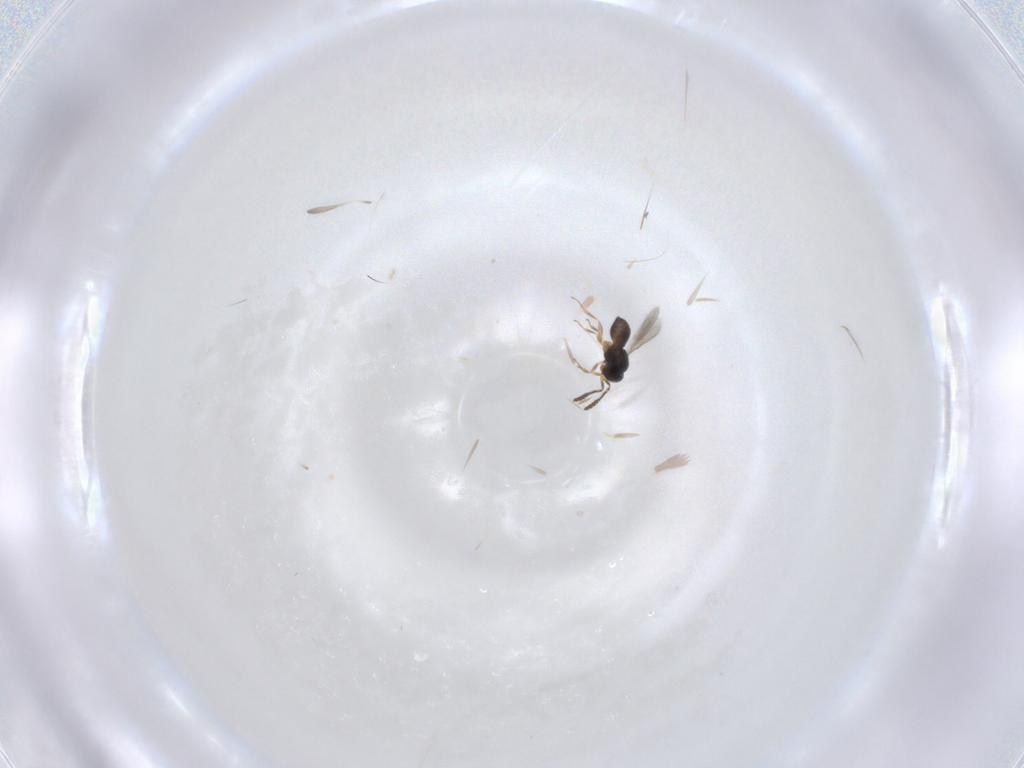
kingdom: Animalia
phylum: Arthropoda
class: Insecta
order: Hymenoptera
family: Scelionidae
